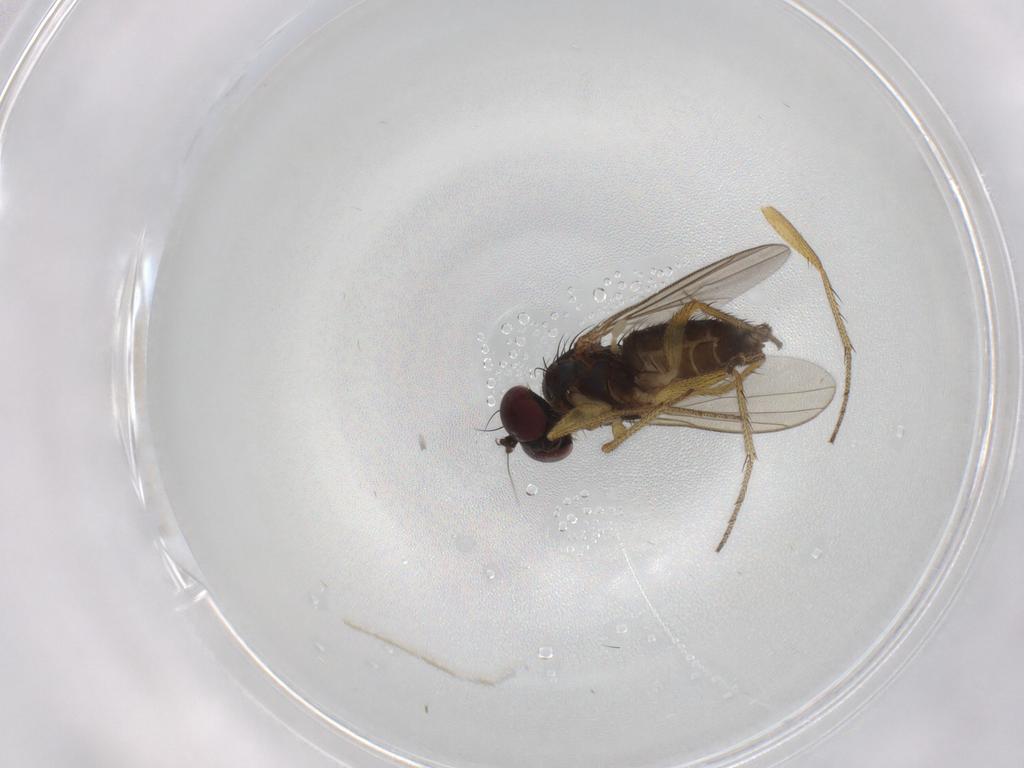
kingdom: Animalia
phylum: Arthropoda
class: Insecta
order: Diptera
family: Dolichopodidae
